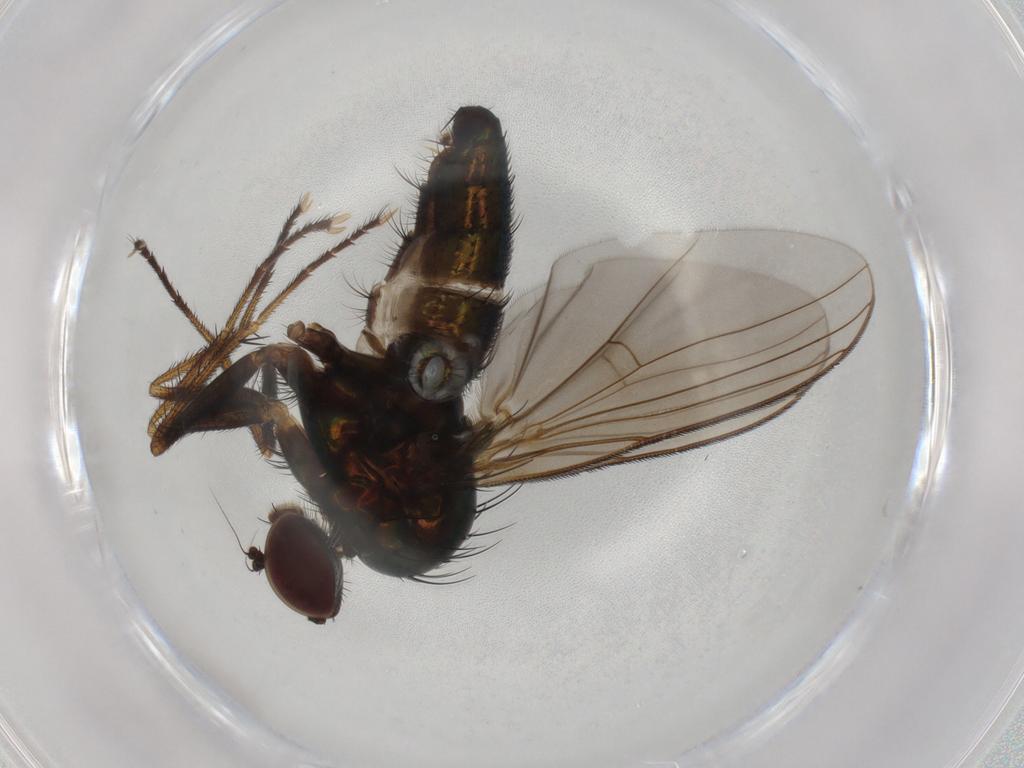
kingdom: Animalia
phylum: Arthropoda
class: Insecta
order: Diptera
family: Dolichopodidae
